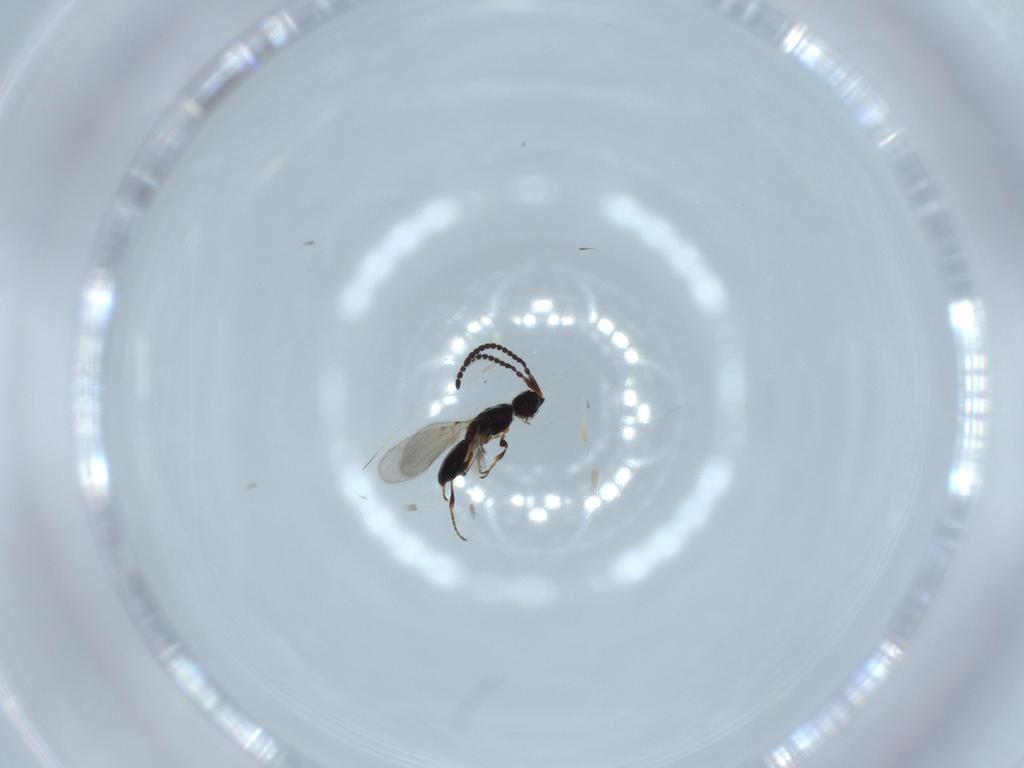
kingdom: Animalia
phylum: Arthropoda
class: Insecta
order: Hymenoptera
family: Diapriidae
